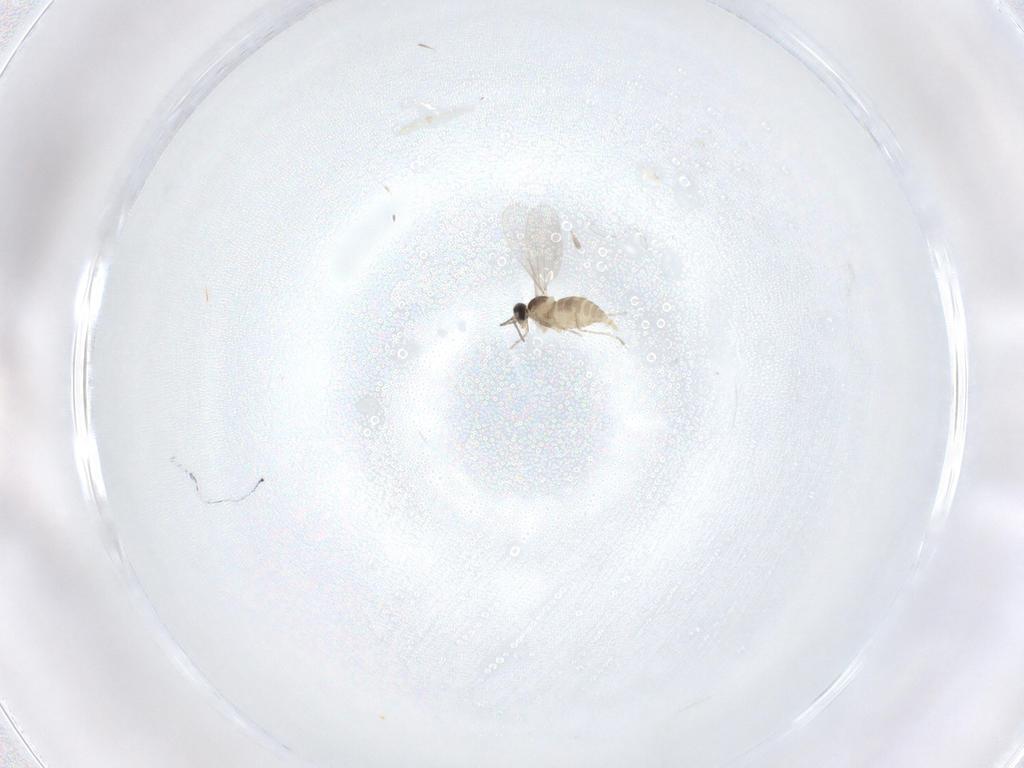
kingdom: Animalia
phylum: Arthropoda
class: Insecta
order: Diptera
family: Cecidomyiidae
